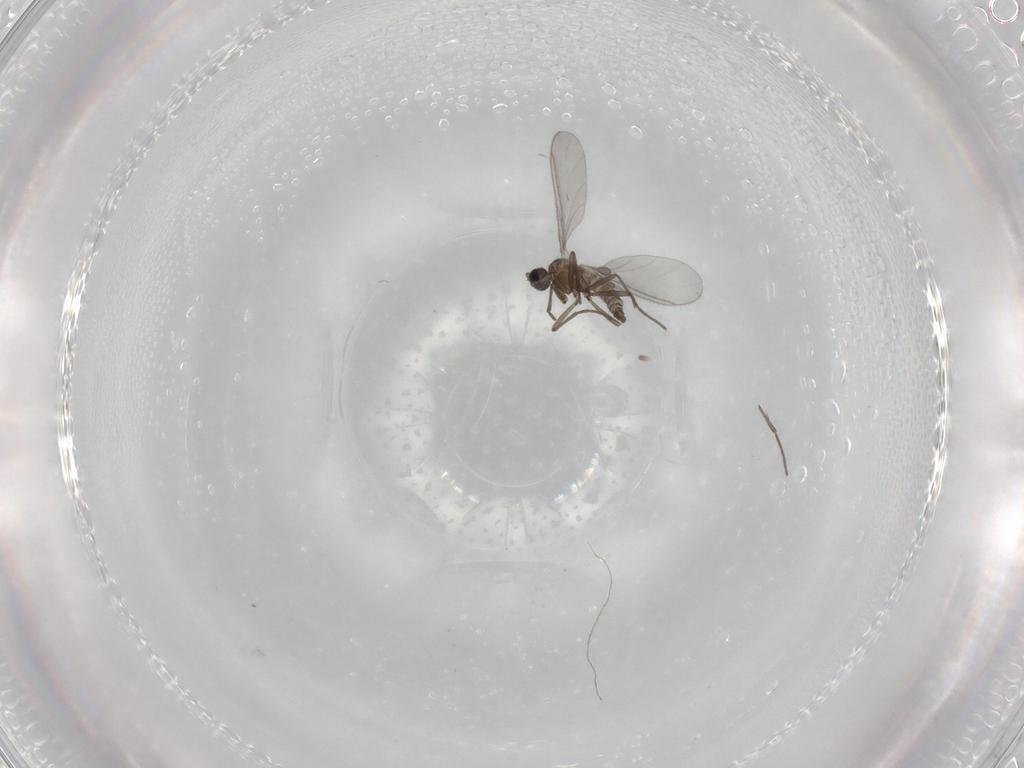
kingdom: Animalia
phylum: Arthropoda
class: Insecta
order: Diptera
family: Sciaridae
